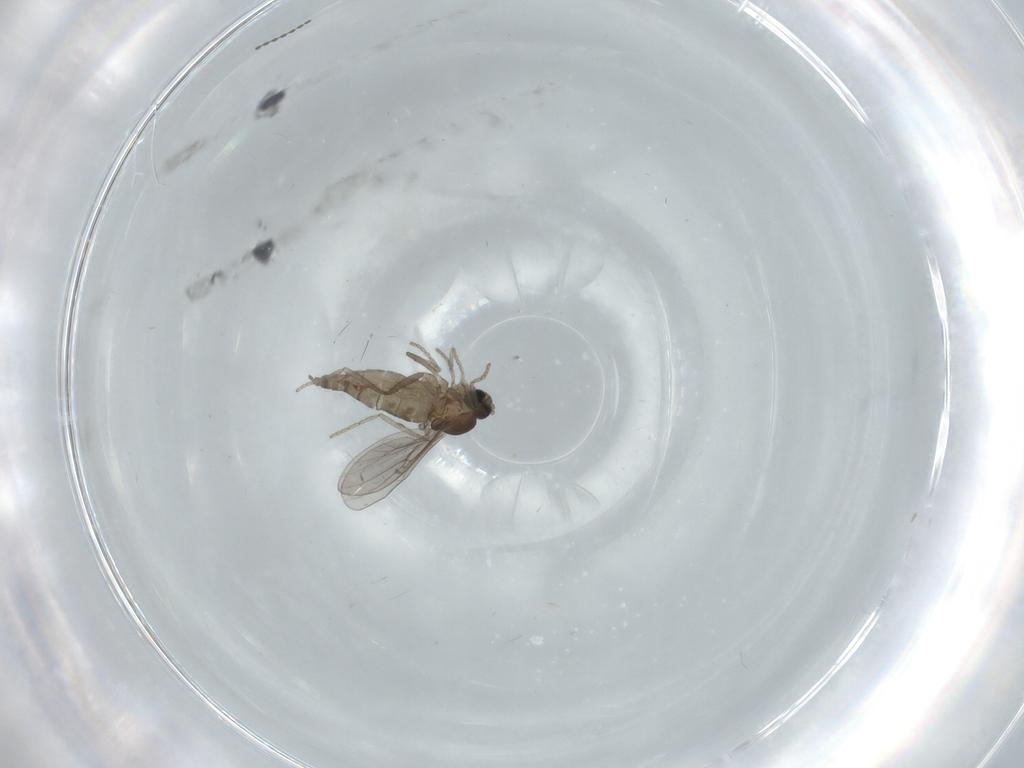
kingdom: Animalia
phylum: Arthropoda
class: Insecta
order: Diptera
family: Cecidomyiidae
